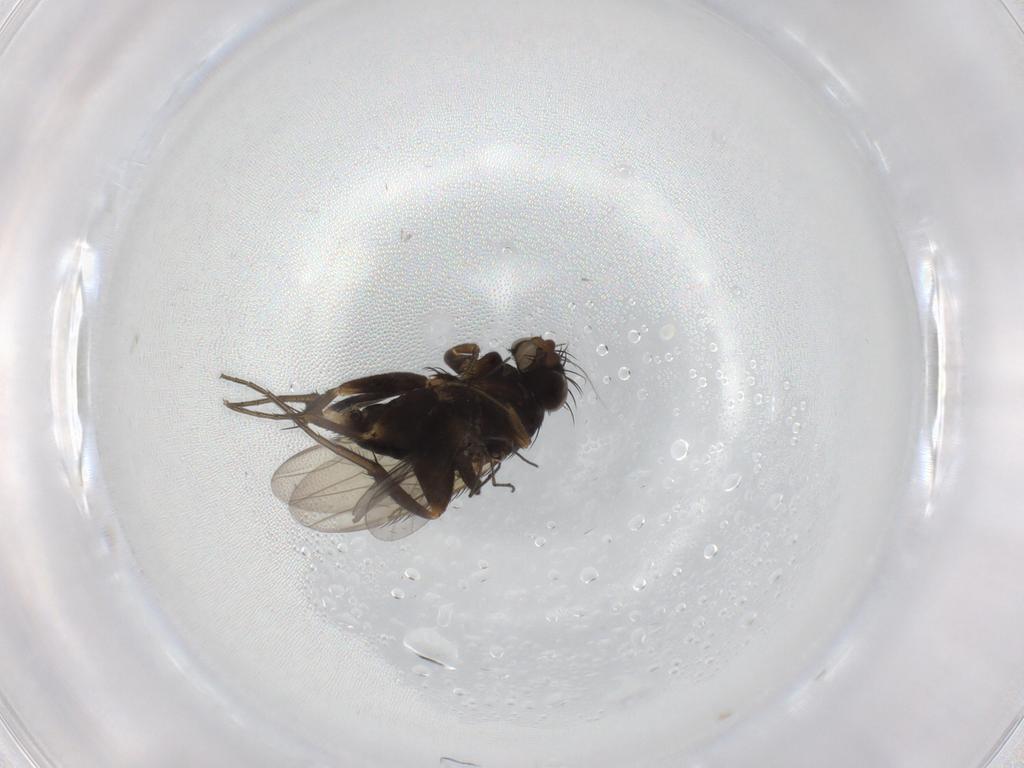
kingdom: Animalia
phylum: Arthropoda
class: Insecta
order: Diptera
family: Phoridae
